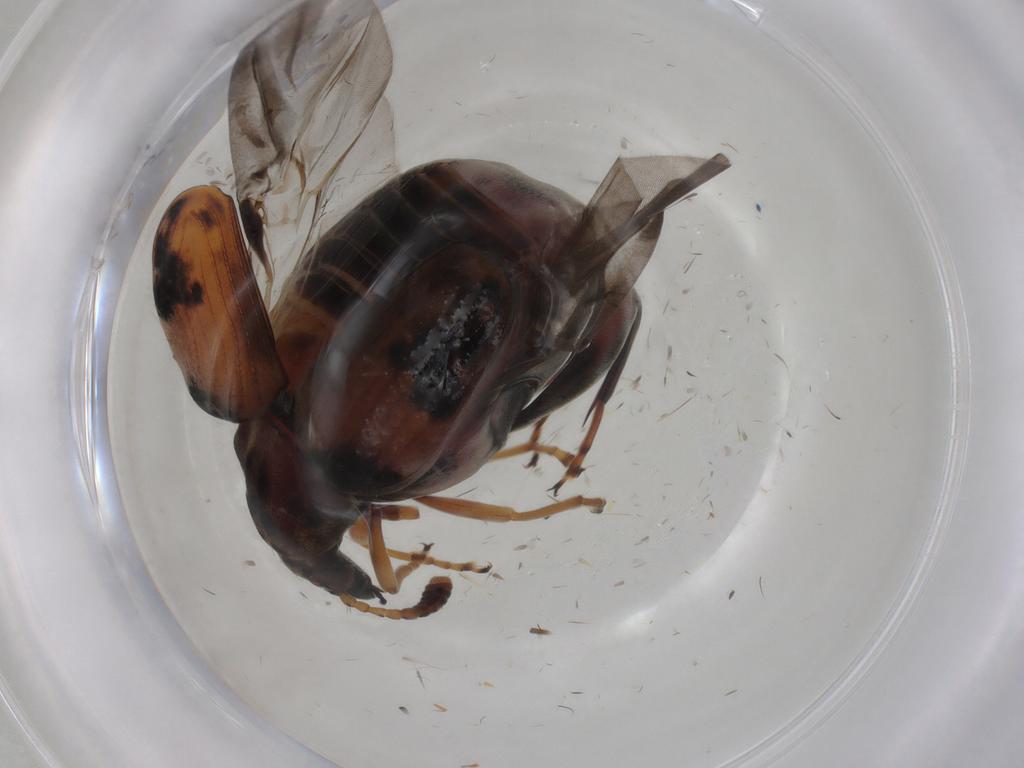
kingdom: Animalia
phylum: Arthropoda
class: Insecta
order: Coleoptera
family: Chrysomelidae
